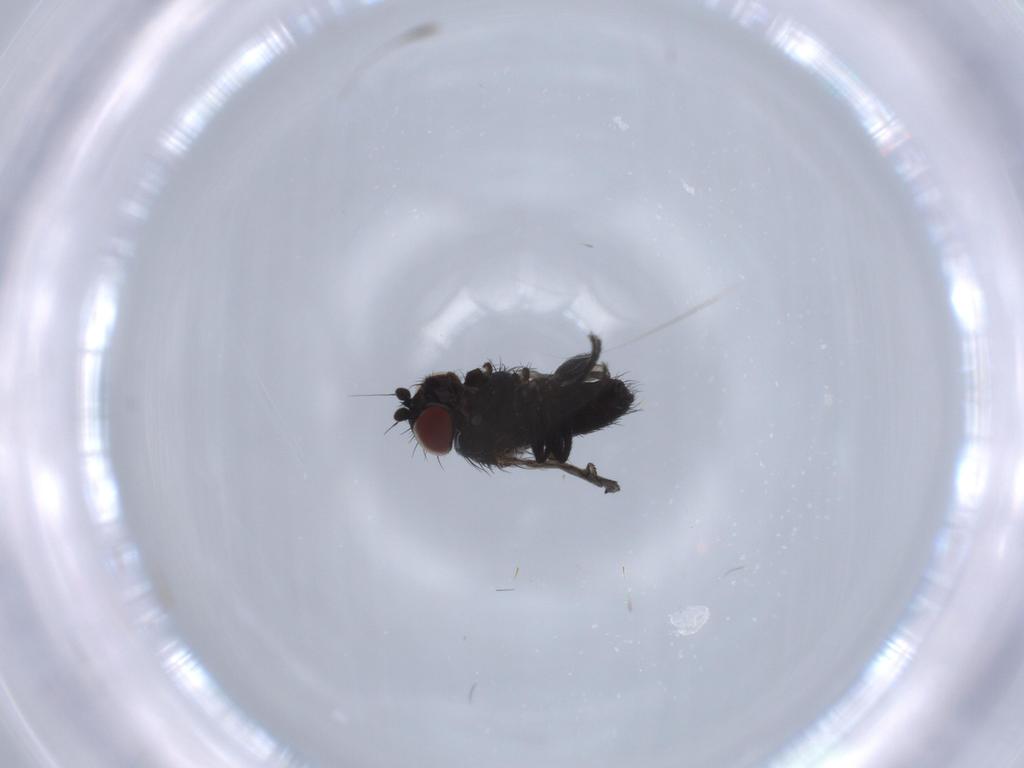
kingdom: Animalia
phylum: Arthropoda
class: Insecta
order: Diptera
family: Milichiidae
